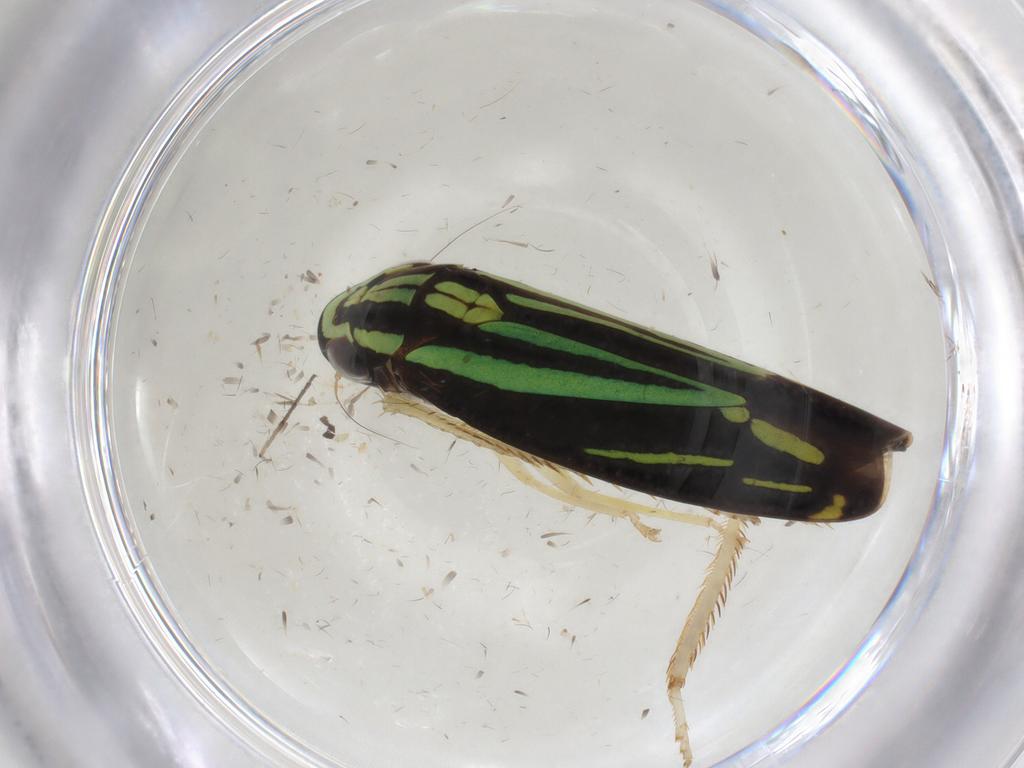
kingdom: Animalia
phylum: Arthropoda
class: Insecta
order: Hemiptera
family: Cicadellidae
